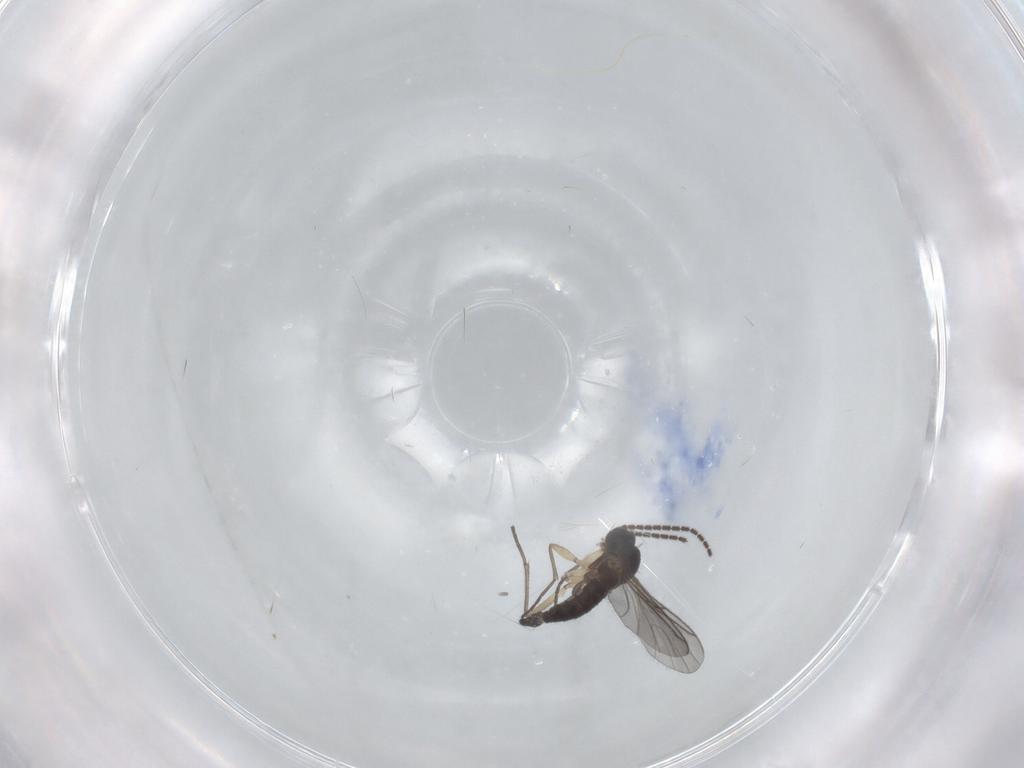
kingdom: Animalia
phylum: Arthropoda
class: Insecta
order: Diptera
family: Sciaridae
